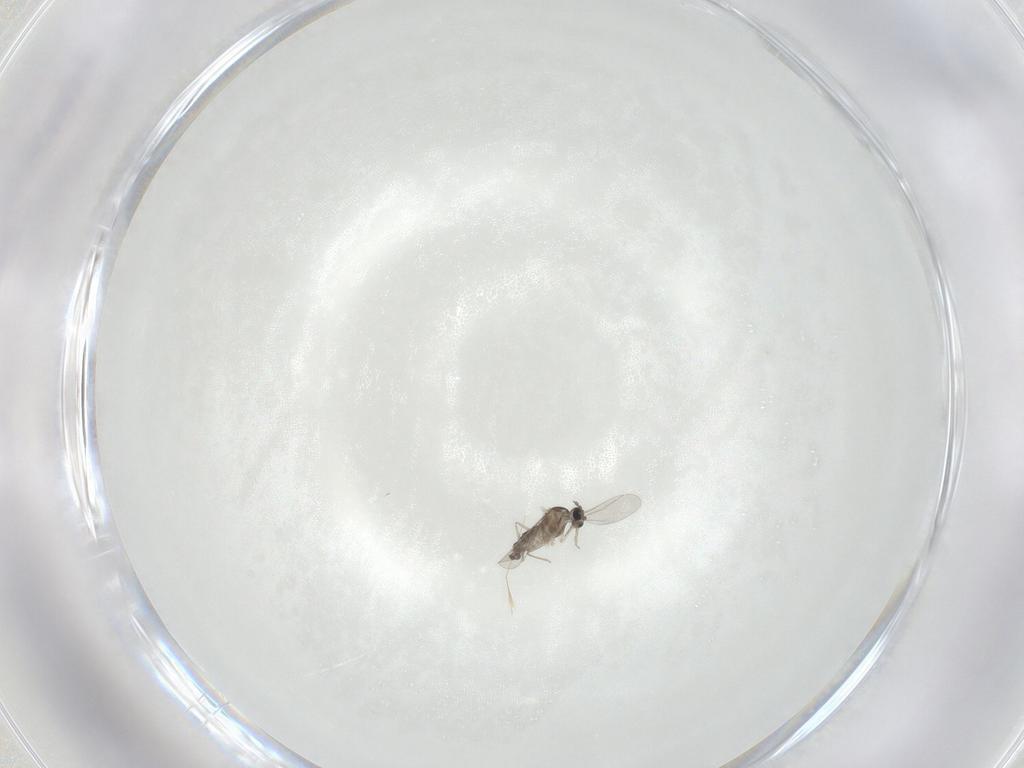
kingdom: Animalia
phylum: Arthropoda
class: Insecta
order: Diptera
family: Cecidomyiidae
